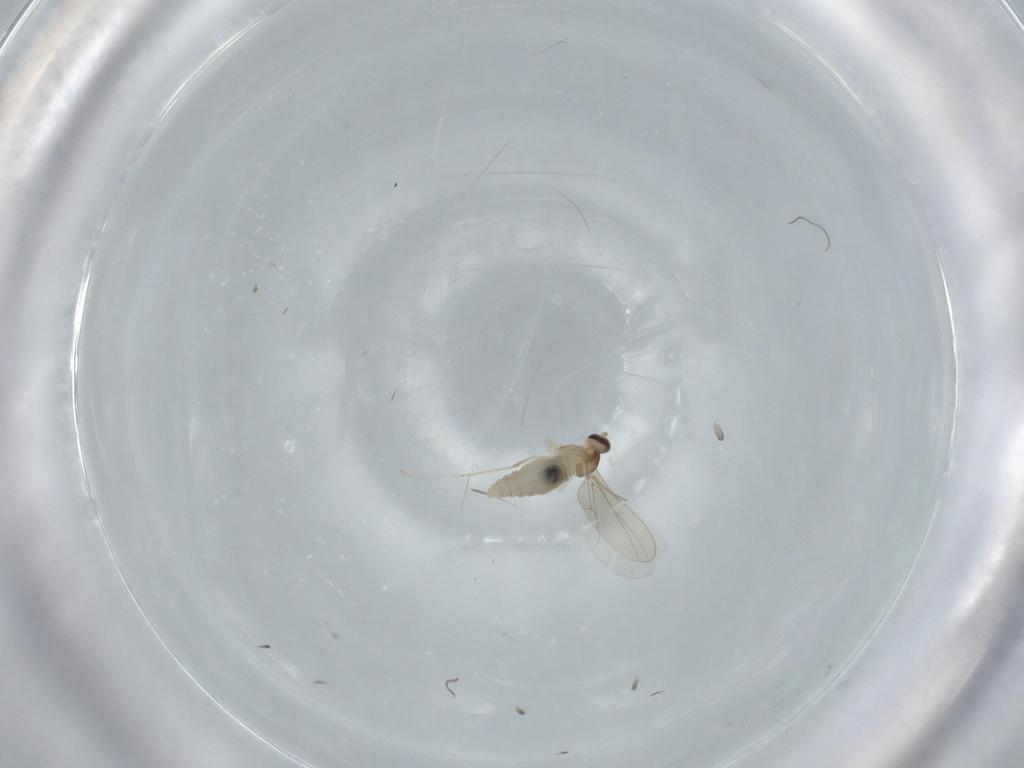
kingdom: Animalia
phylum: Arthropoda
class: Insecta
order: Diptera
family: Cecidomyiidae
